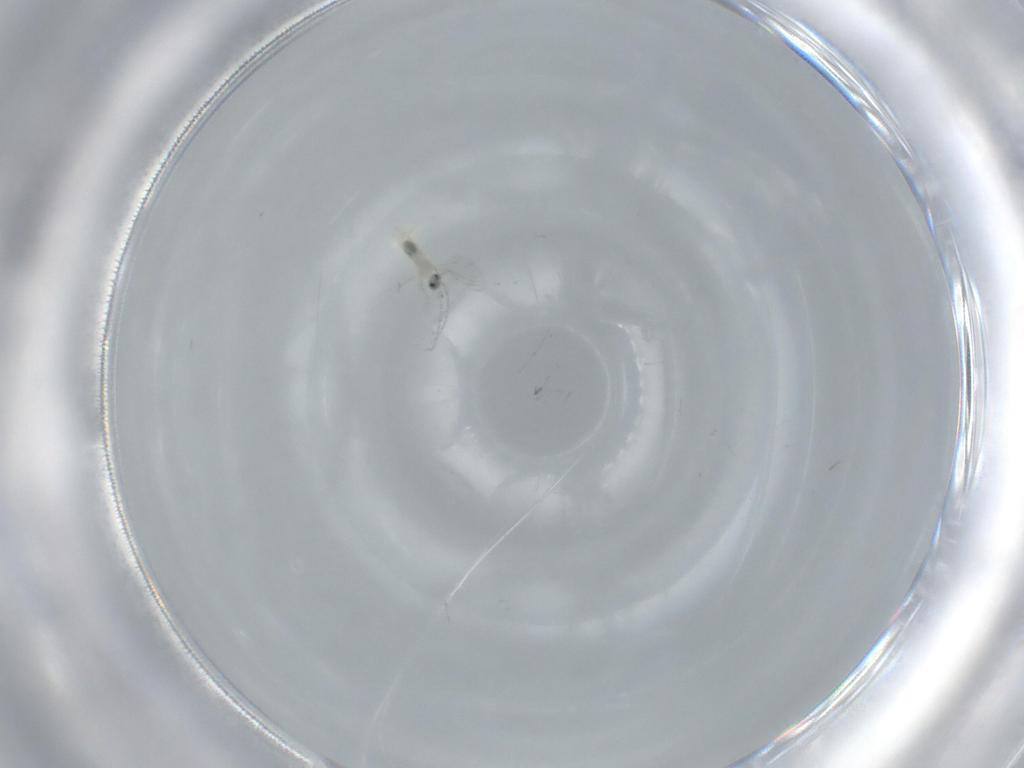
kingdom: Animalia
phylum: Arthropoda
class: Insecta
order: Diptera
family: Cecidomyiidae
